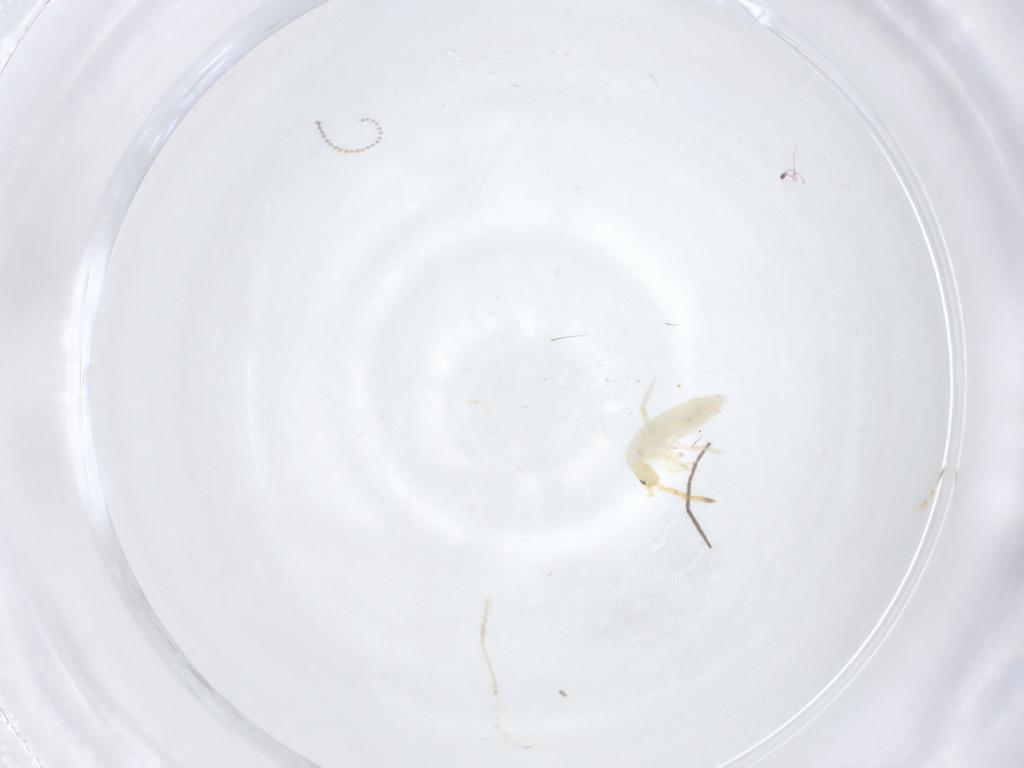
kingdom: Animalia
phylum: Arthropoda
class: Collembola
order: Entomobryomorpha
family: Entomobryidae
